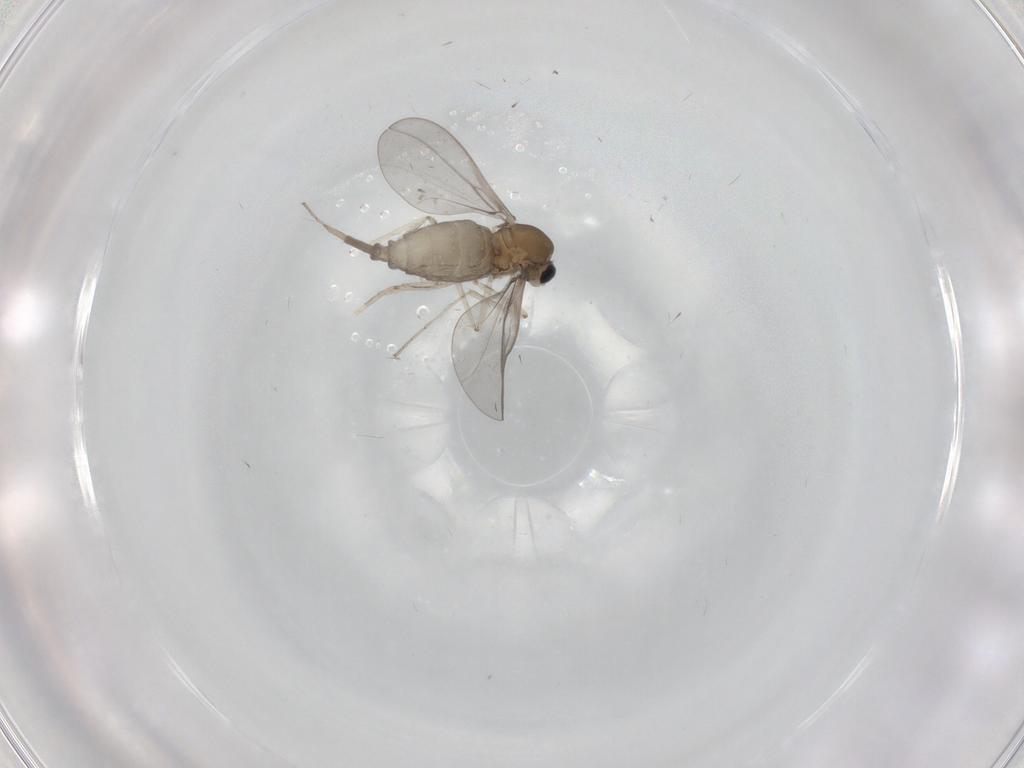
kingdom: Animalia
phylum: Arthropoda
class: Insecta
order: Diptera
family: Cecidomyiidae
